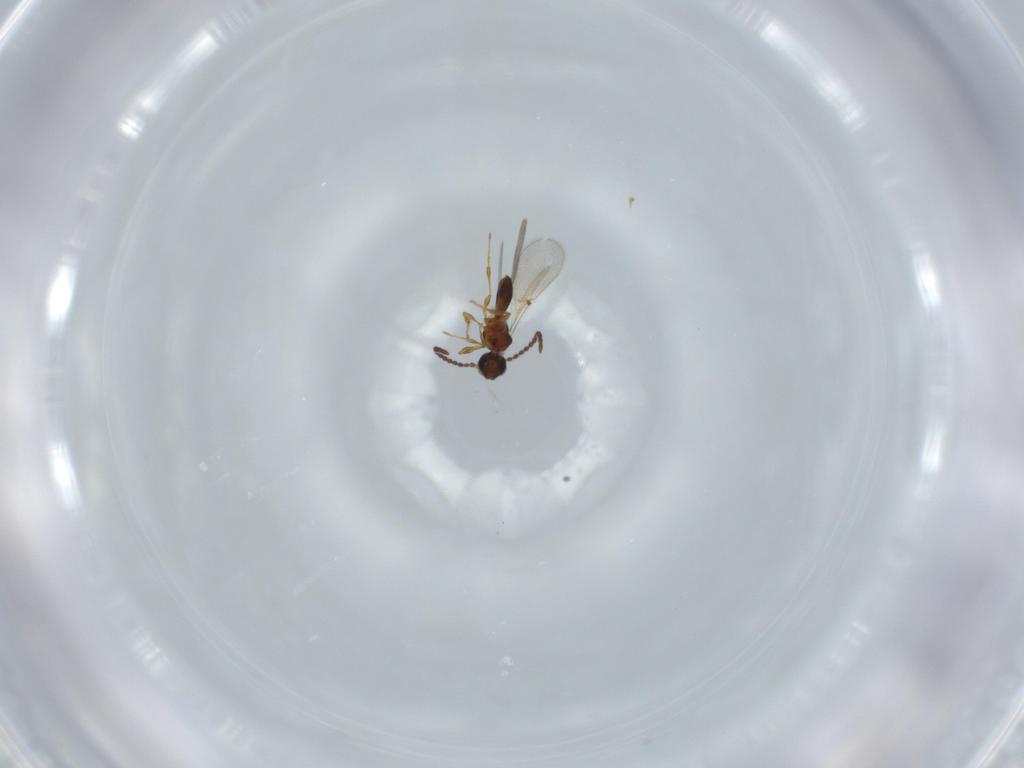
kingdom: Animalia
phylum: Arthropoda
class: Insecta
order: Hymenoptera
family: Diapriidae
